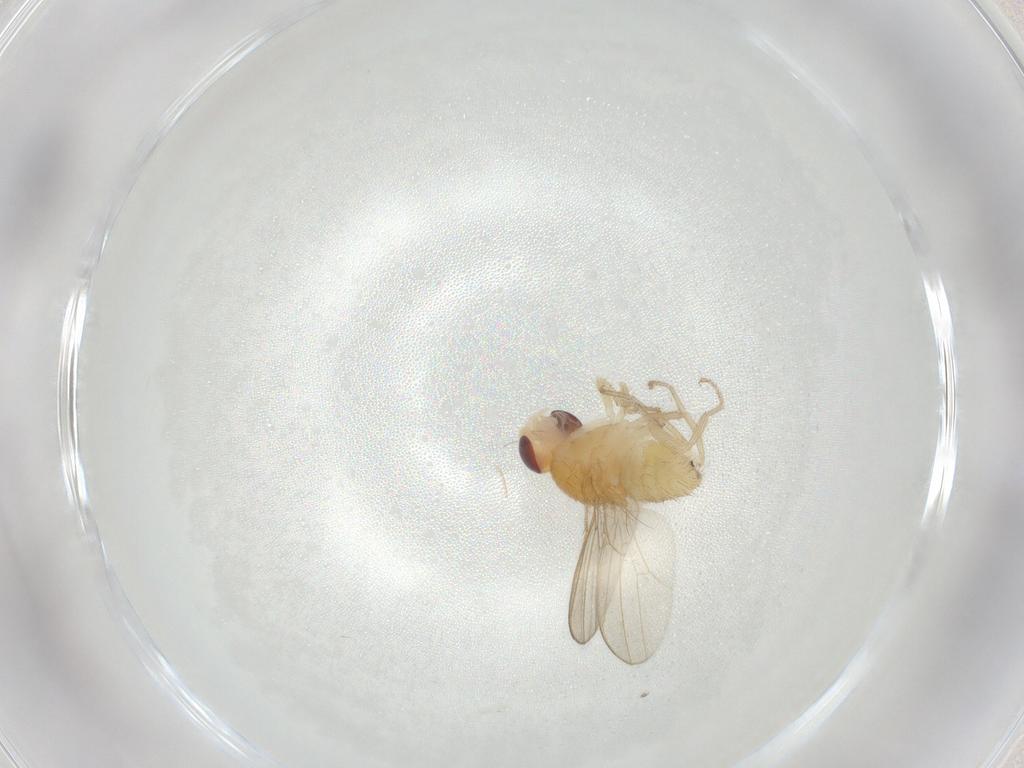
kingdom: Animalia
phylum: Arthropoda
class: Insecta
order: Diptera
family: Drosophilidae
